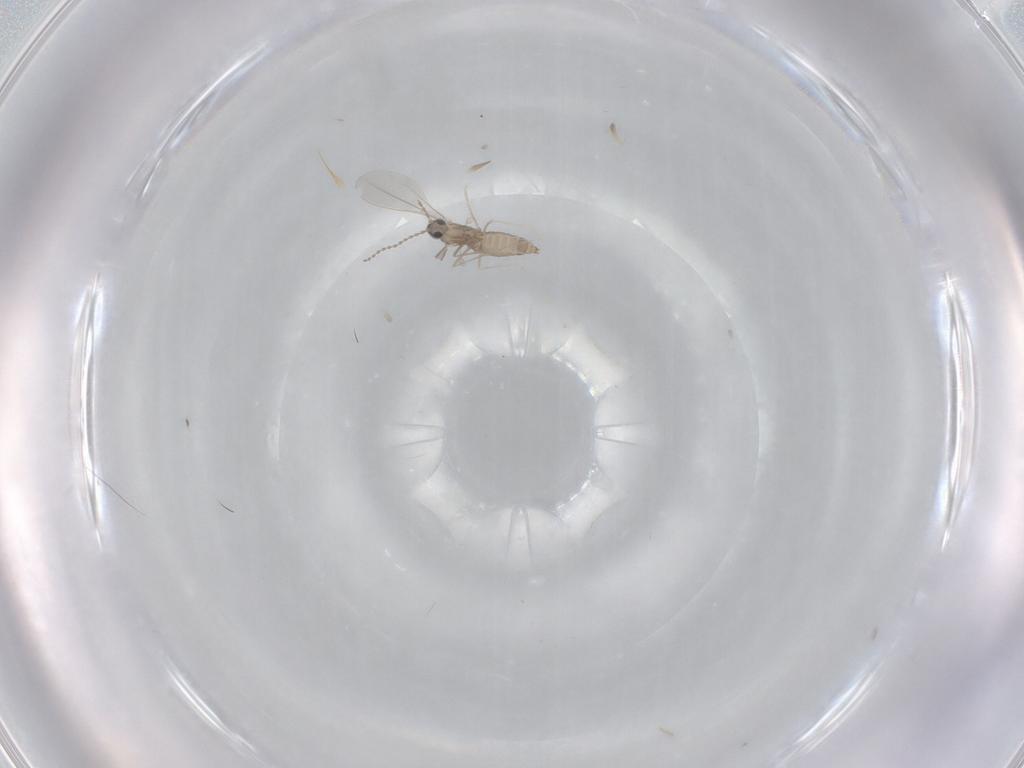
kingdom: Animalia
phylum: Arthropoda
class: Insecta
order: Diptera
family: Cecidomyiidae
